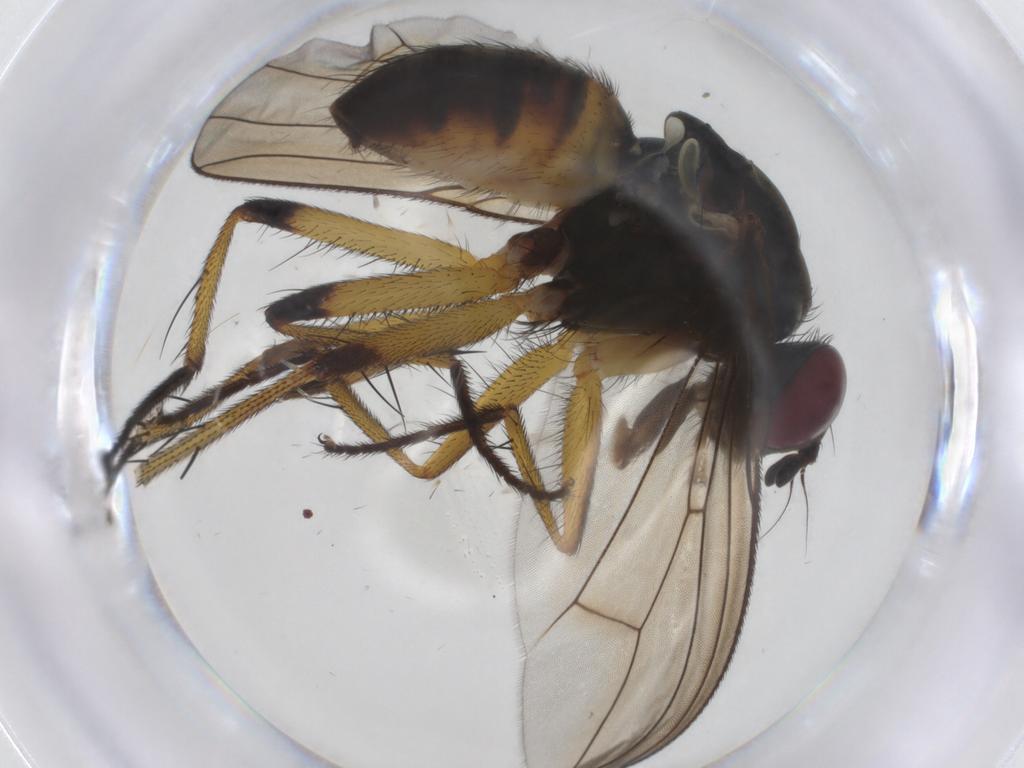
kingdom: Animalia
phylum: Arthropoda
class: Insecta
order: Diptera
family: Muscidae
